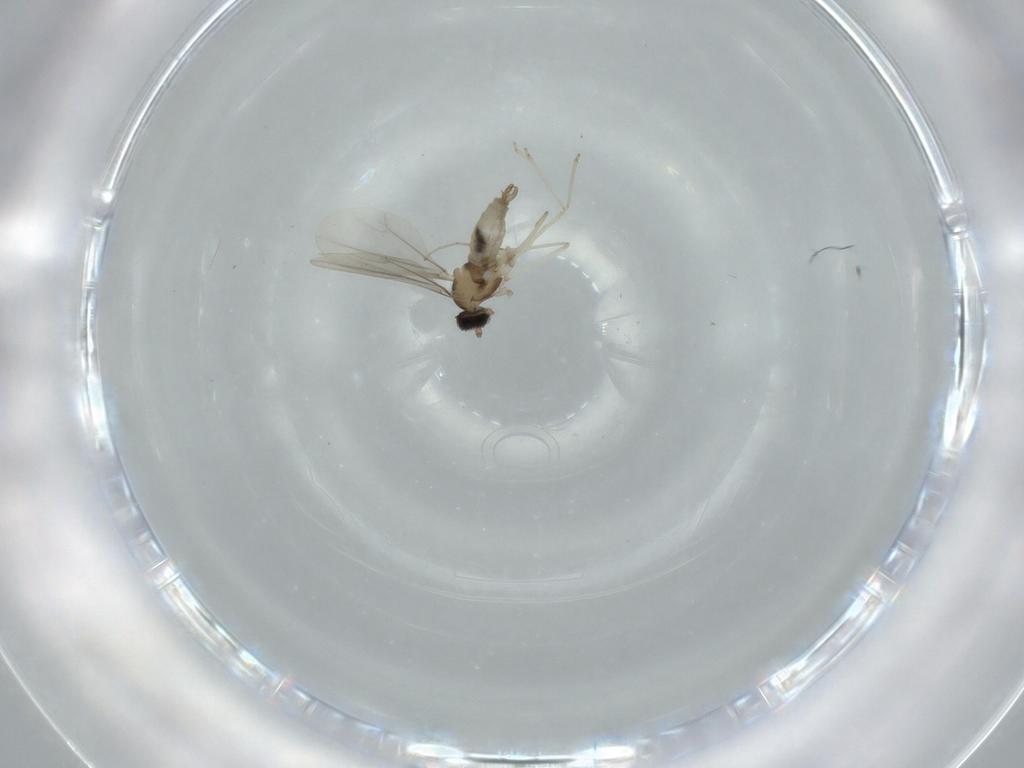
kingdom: Animalia
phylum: Arthropoda
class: Insecta
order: Diptera
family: Cecidomyiidae
